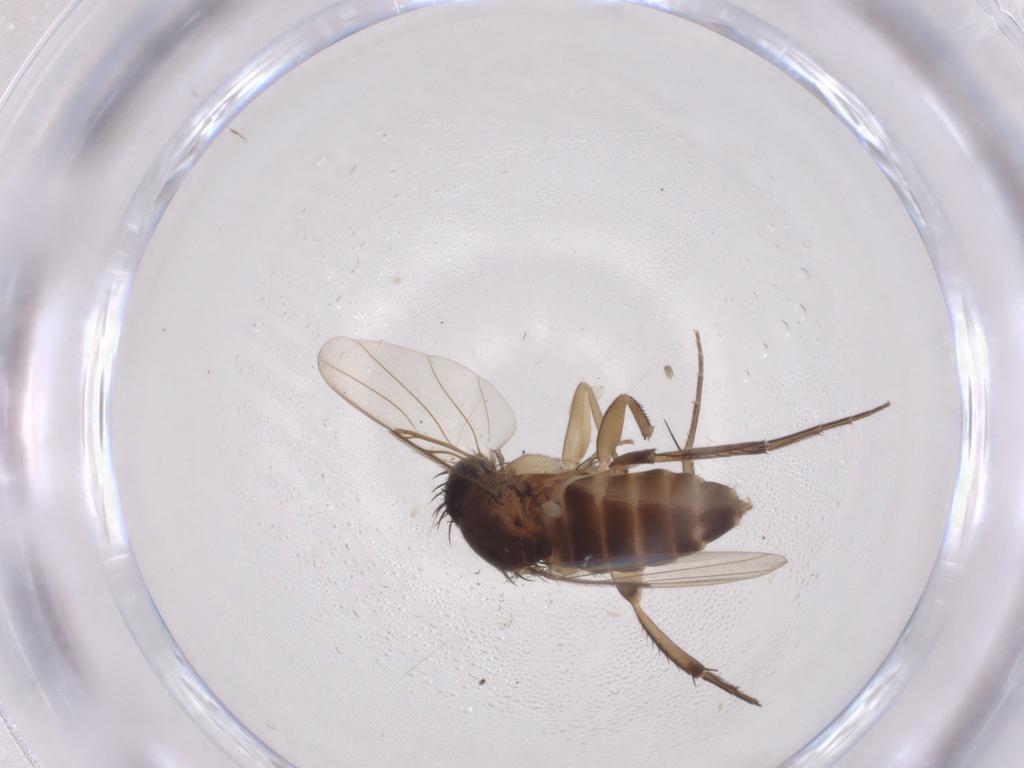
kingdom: Animalia
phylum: Arthropoda
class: Insecta
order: Diptera
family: Phoridae
